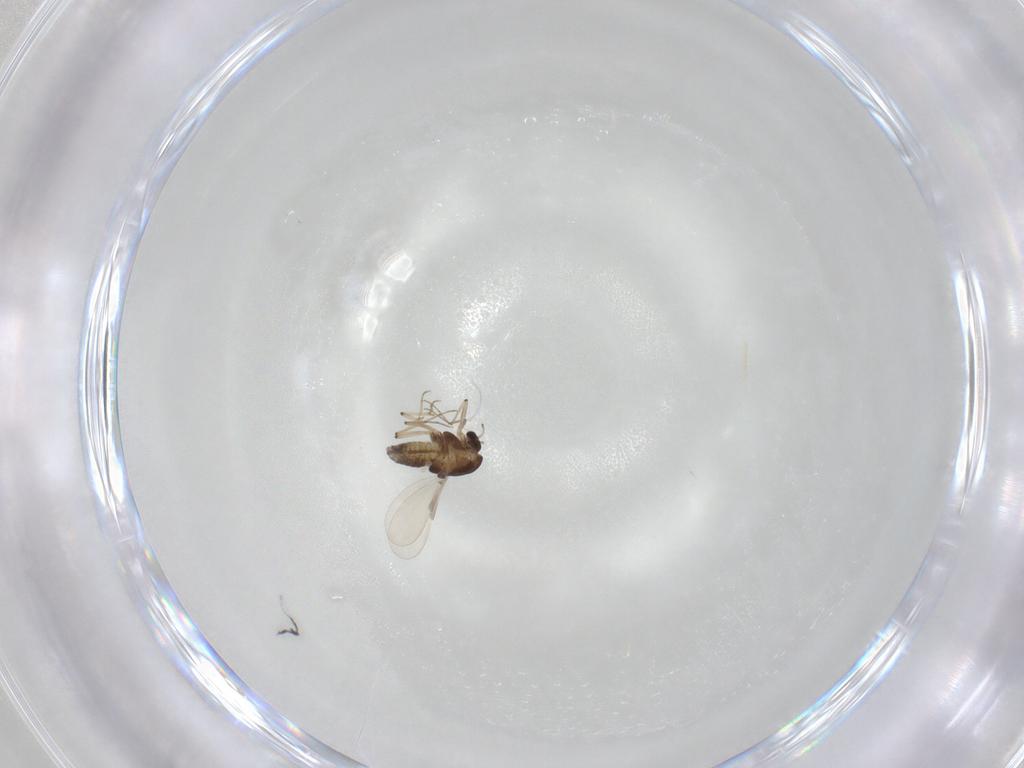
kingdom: Animalia
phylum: Arthropoda
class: Insecta
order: Diptera
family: Chironomidae
